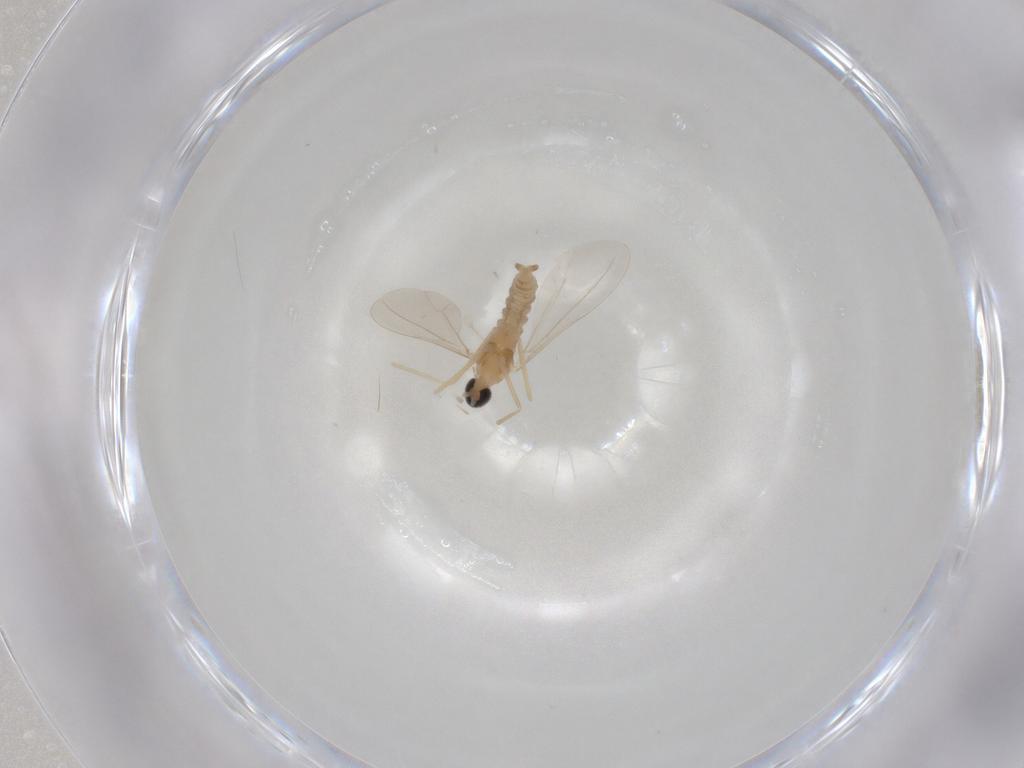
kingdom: Animalia
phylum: Arthropoda
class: Insecta
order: Diptera
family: Cecidomyiidae
